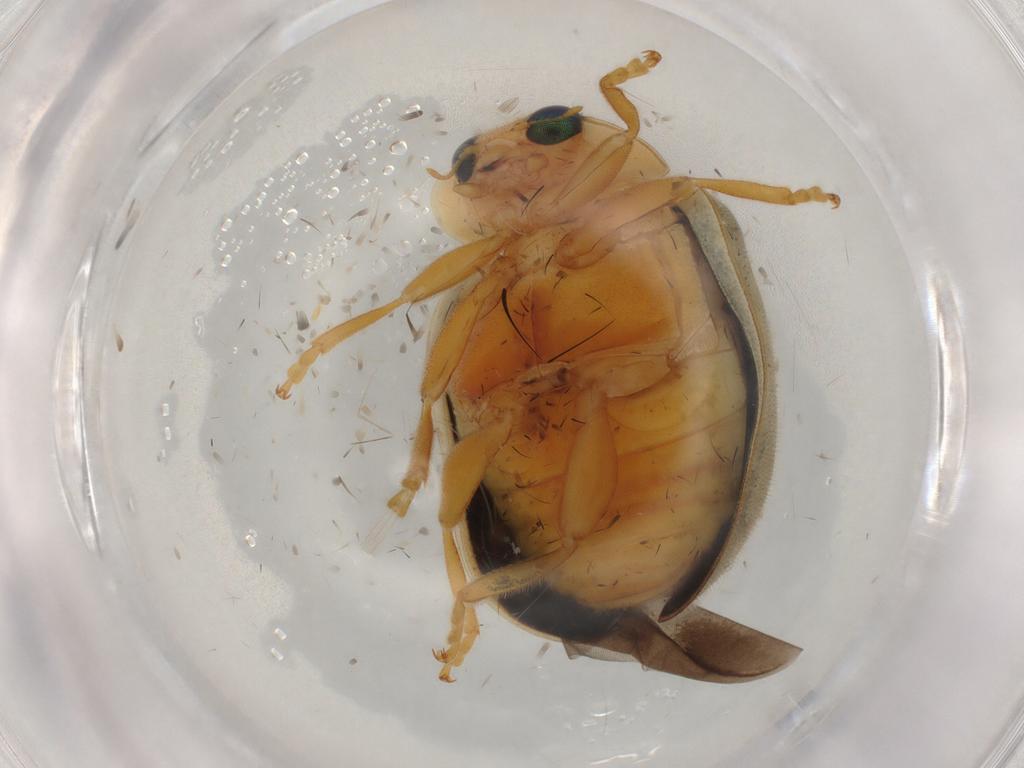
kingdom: Animalia
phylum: Arthropoda
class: Insecta
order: Coleoptera
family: Coccinellidae
